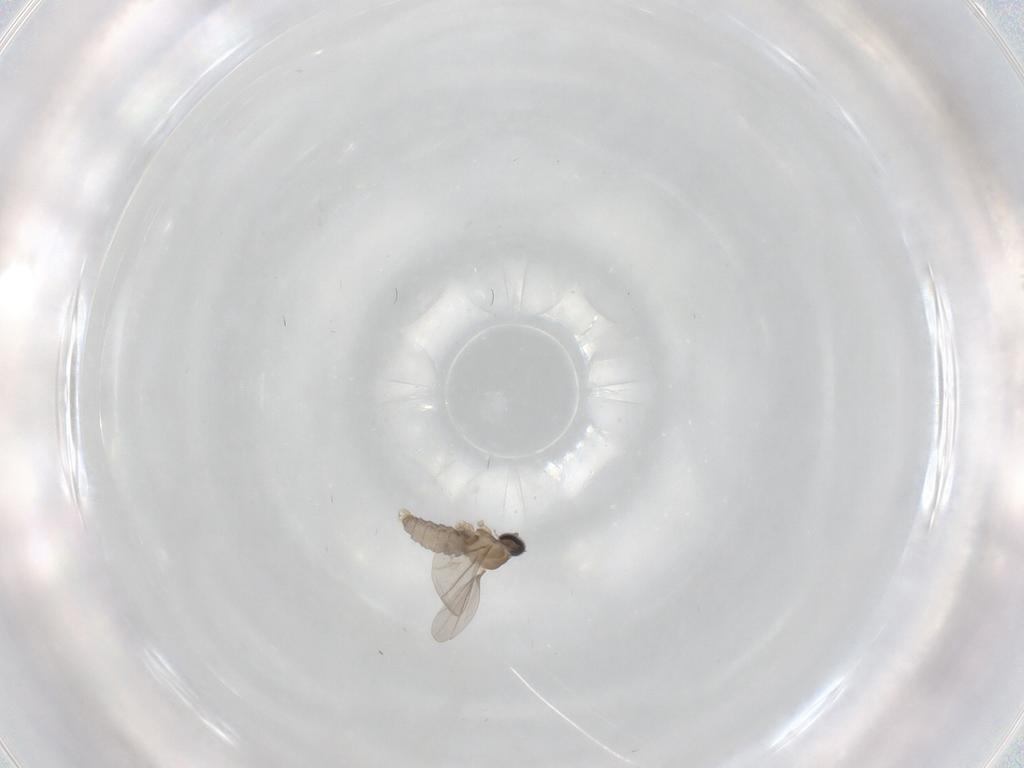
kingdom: Animalia
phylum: Arthropoda
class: Insecta
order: Diptera
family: Cecidomyiidae
